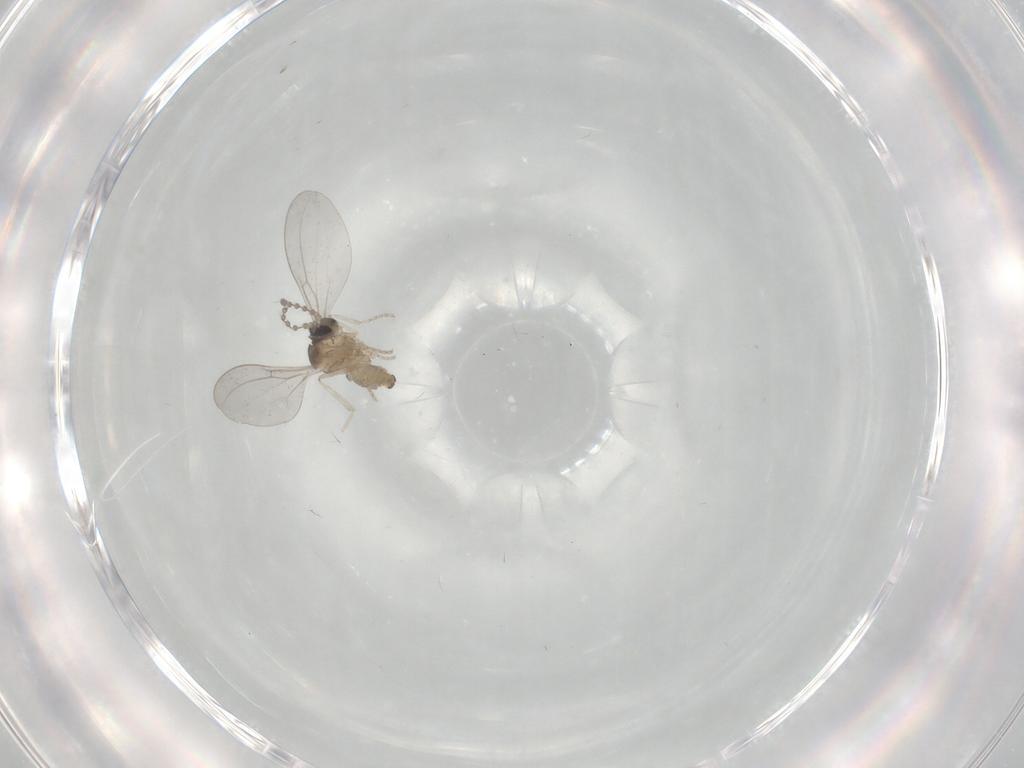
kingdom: Animalia
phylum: Arthropoda
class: Insecta
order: Diptera
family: Cecidomyiidae
